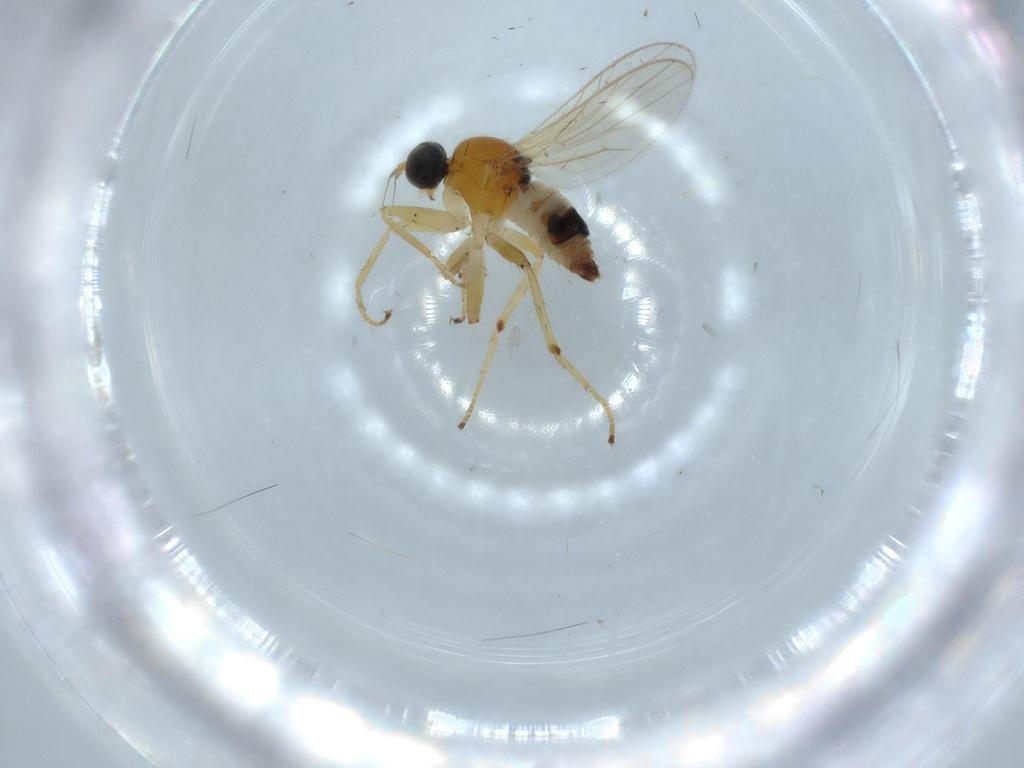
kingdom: Animalia
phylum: Arthropoda
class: Insecta
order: Diptera
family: Hybotidae
